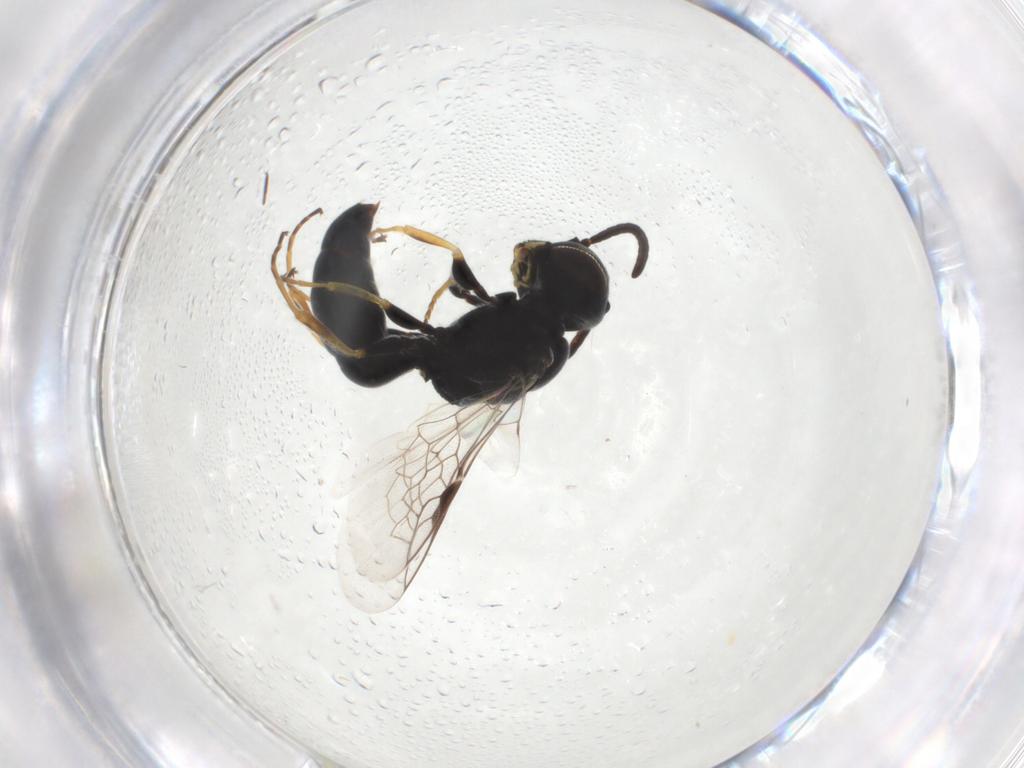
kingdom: Animalia
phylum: Arthropoda
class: Insecta
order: Hymenoptera
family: Pemphredonidae
